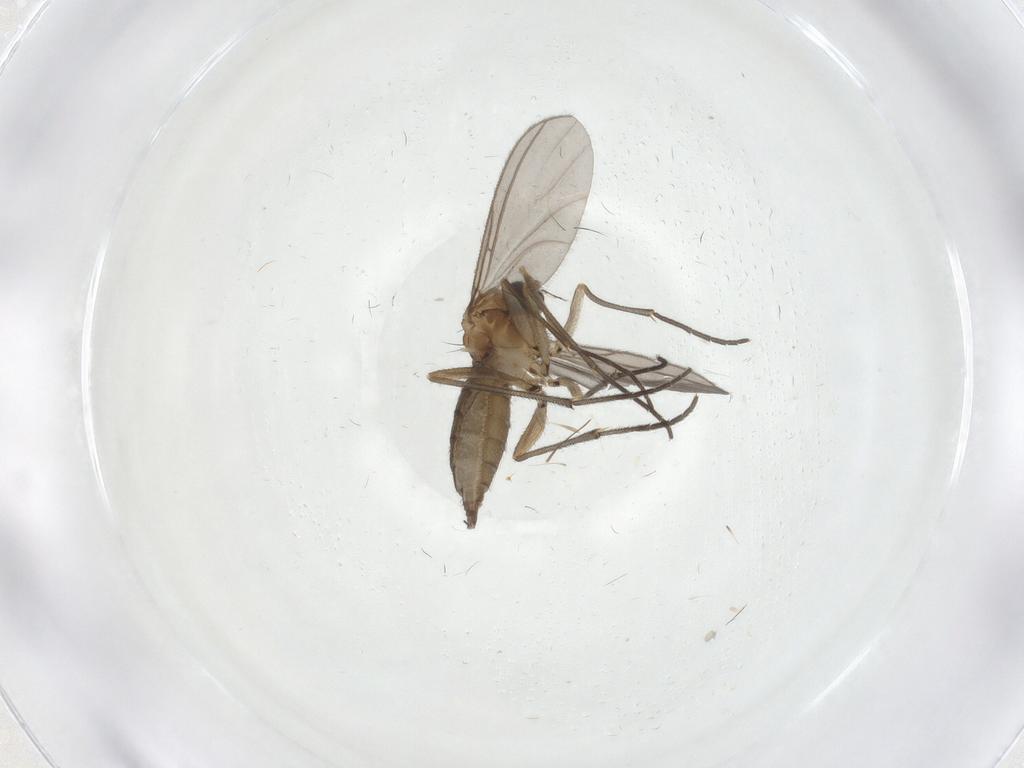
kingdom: Animalia
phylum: Arthropoda
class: Insecta
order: Diptera
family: Sciaridae
